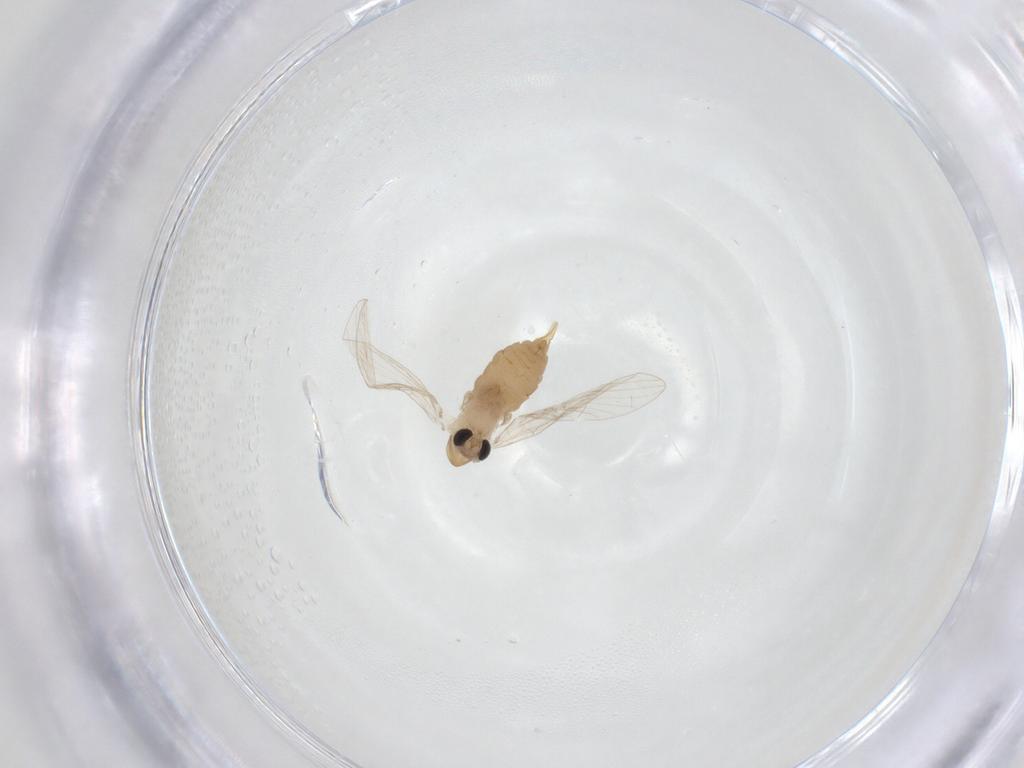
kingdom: Animalia
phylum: Arthropoda
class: Insecta
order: Diptera
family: Cecidomyiidae
